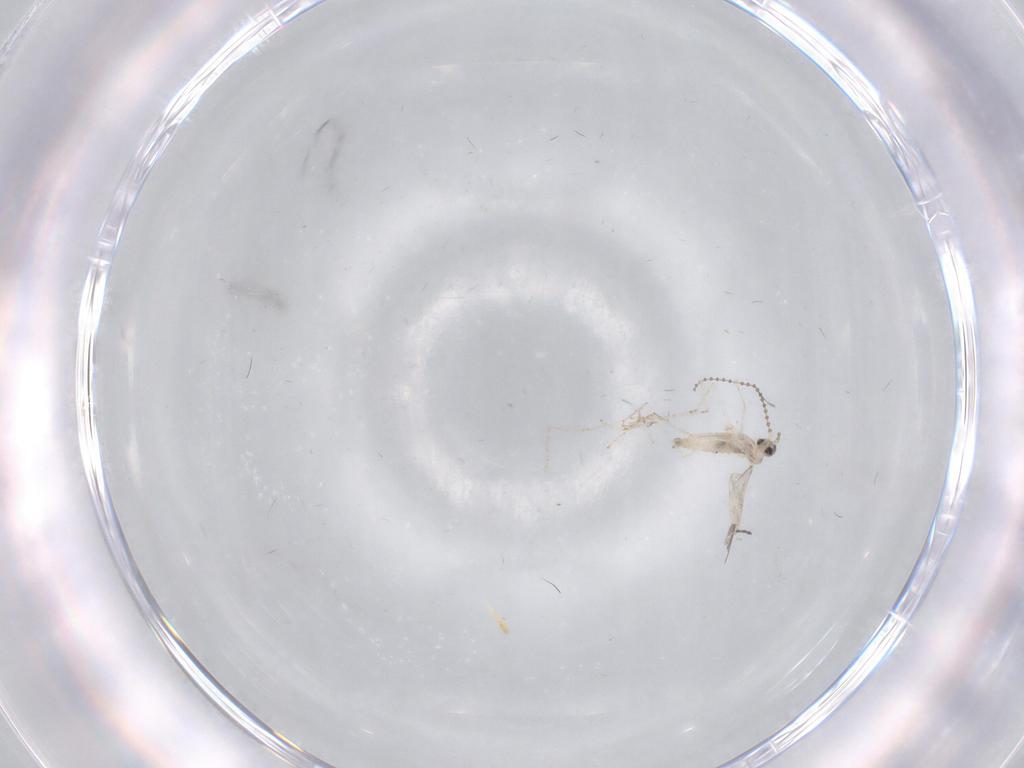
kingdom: Animalia
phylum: Arthropoda
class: Insecta
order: Diptera
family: Cecidomyiidae
